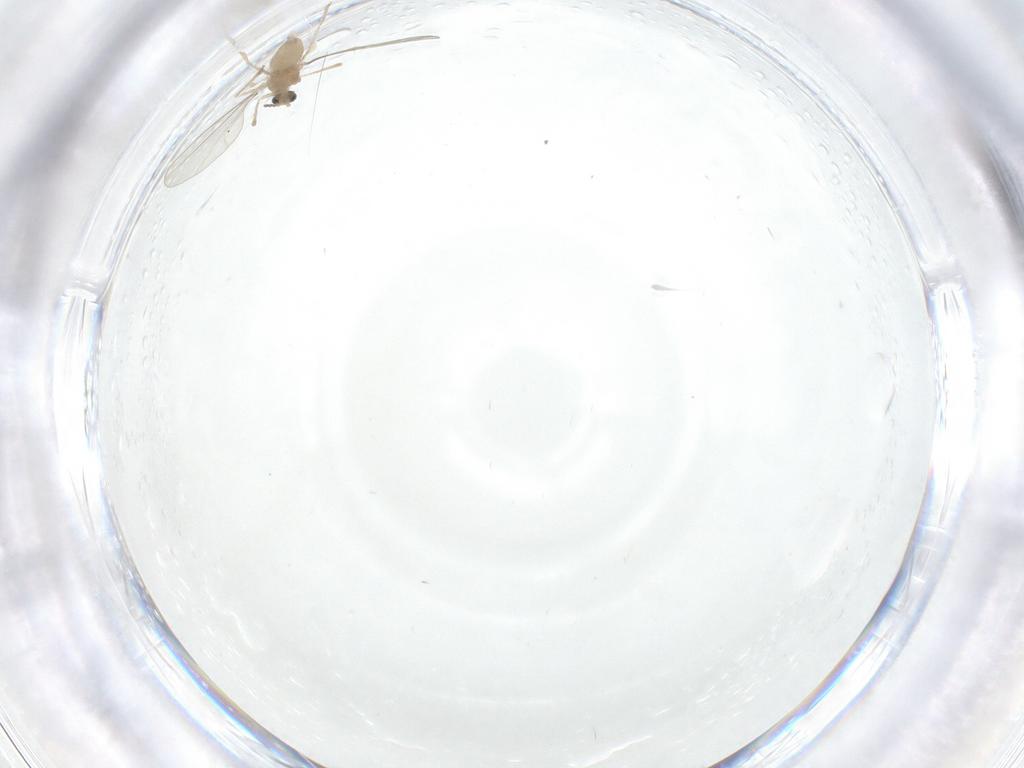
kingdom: Animalia
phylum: Arthropoda
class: Insecta
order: Diptera
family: Cecidomyiidae
